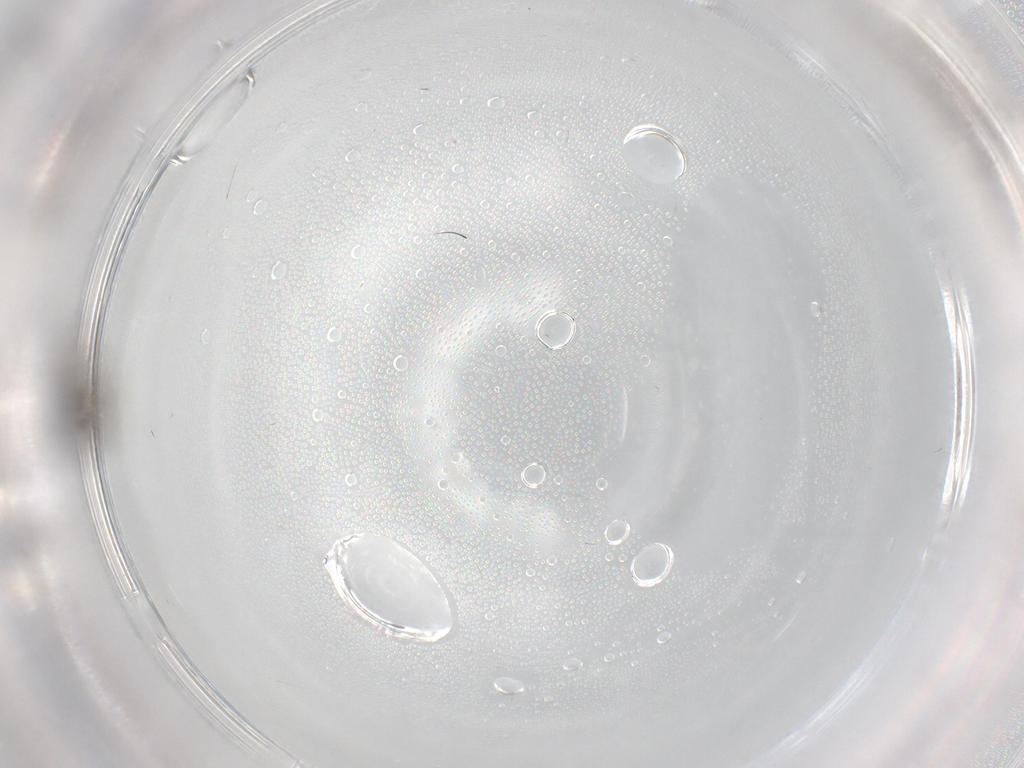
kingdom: Animalia
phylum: Arthropoda
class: Insecta
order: Diptera
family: Phoridae
